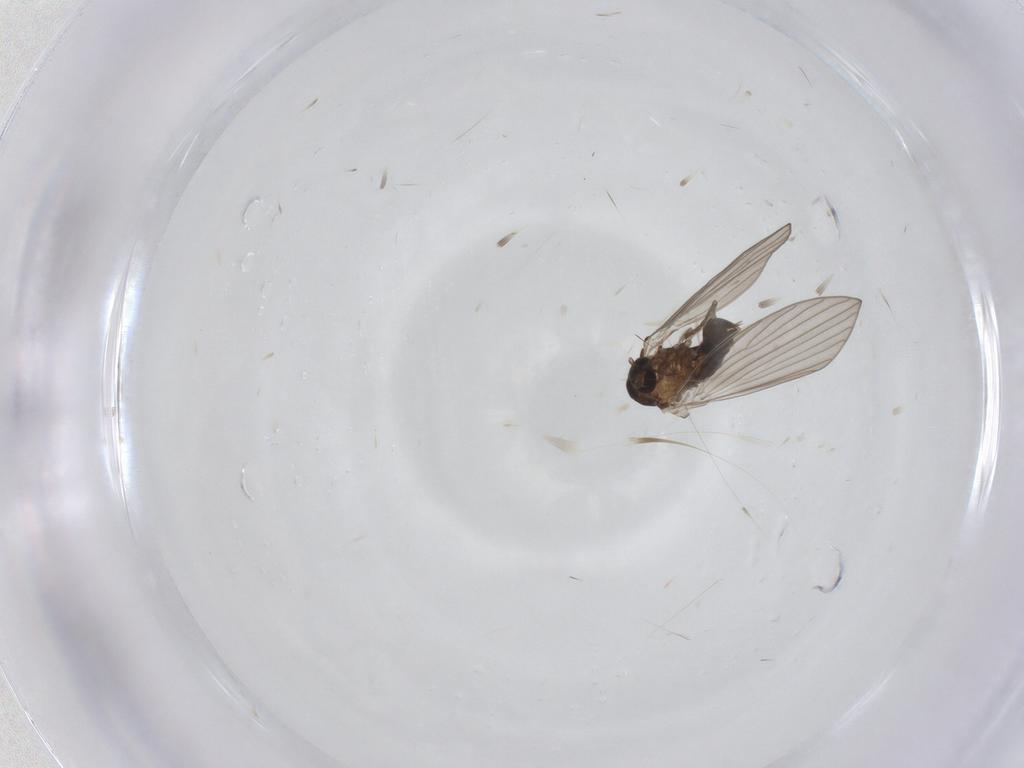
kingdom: Animalia
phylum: Arthropoda
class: Insecta
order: Diptera
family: Psychodidae
